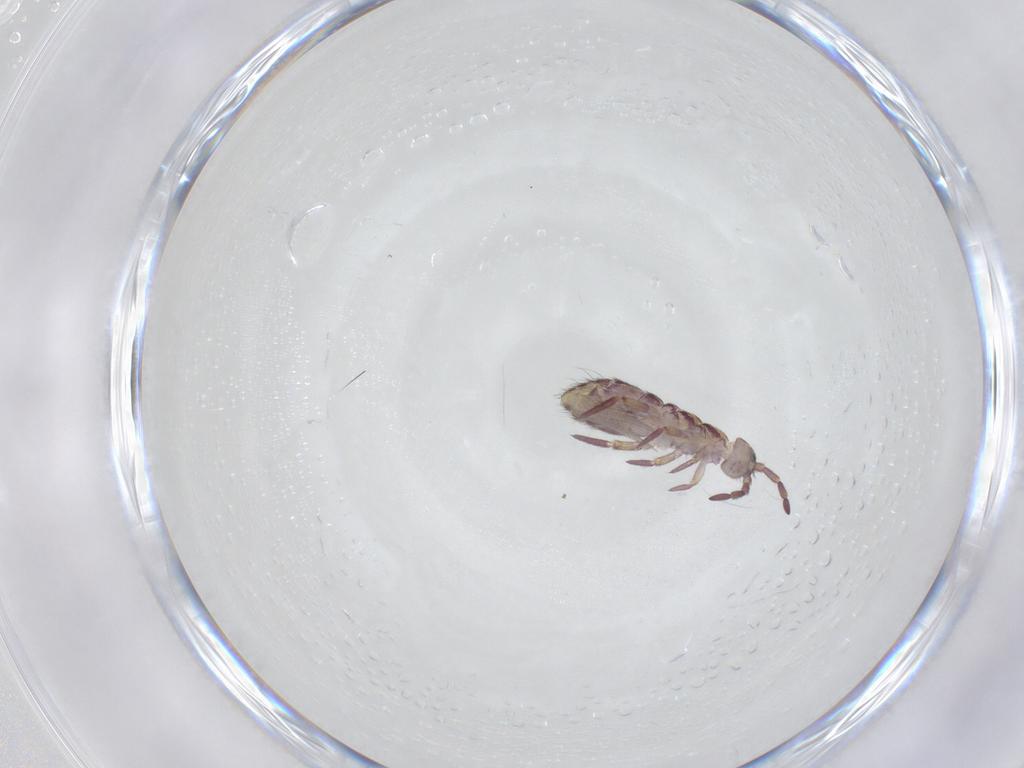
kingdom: Animalia
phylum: Arthropoda
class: Collembola
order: Entomobryomorpha
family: Isotomidae
